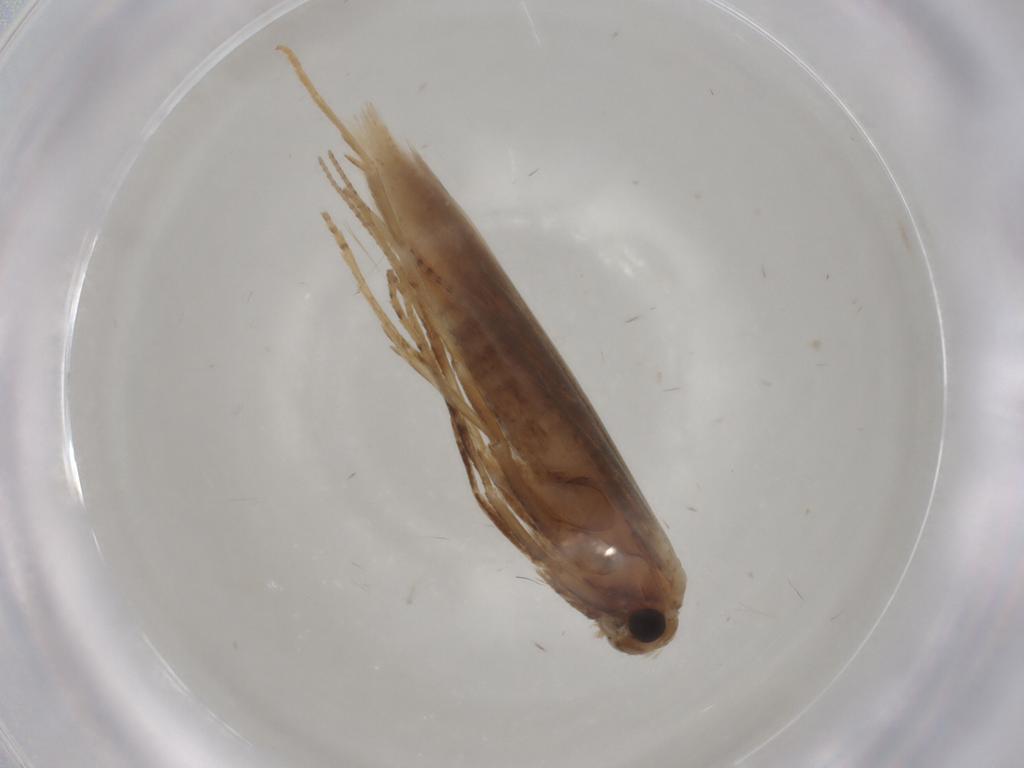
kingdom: Animalia
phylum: Arthropoda
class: Insecta
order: Lepidoptera
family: Bedelliidae
